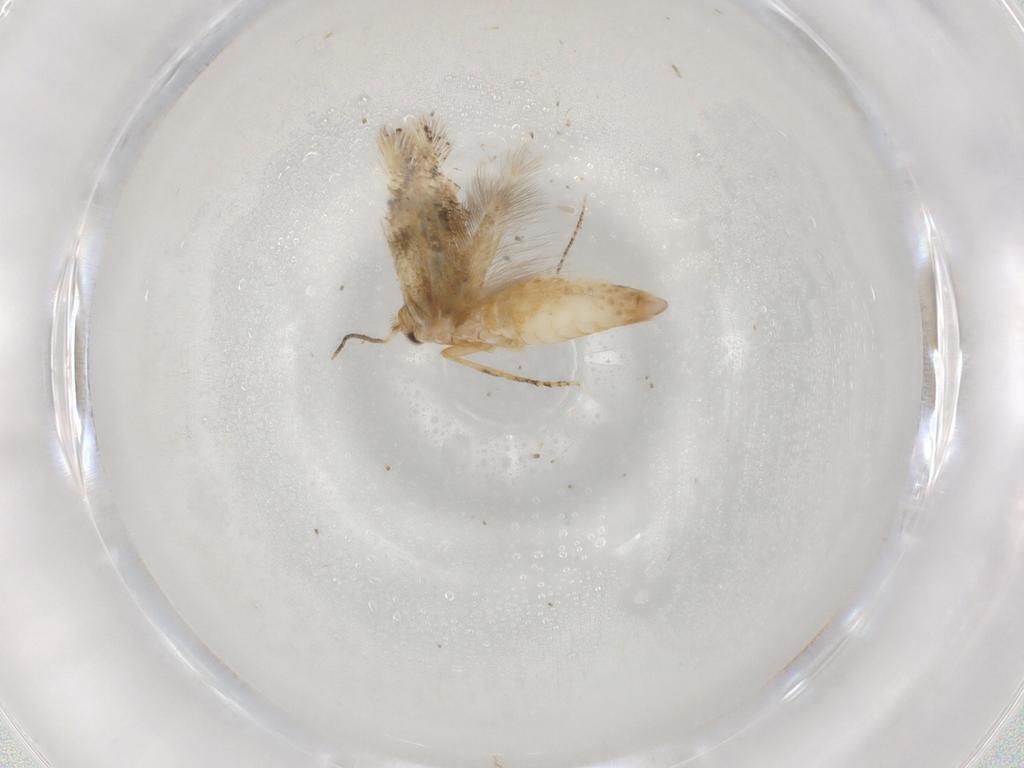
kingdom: Animalia
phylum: Arthropoda
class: Insecta
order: Lepidoptera
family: Bucculatricidae
